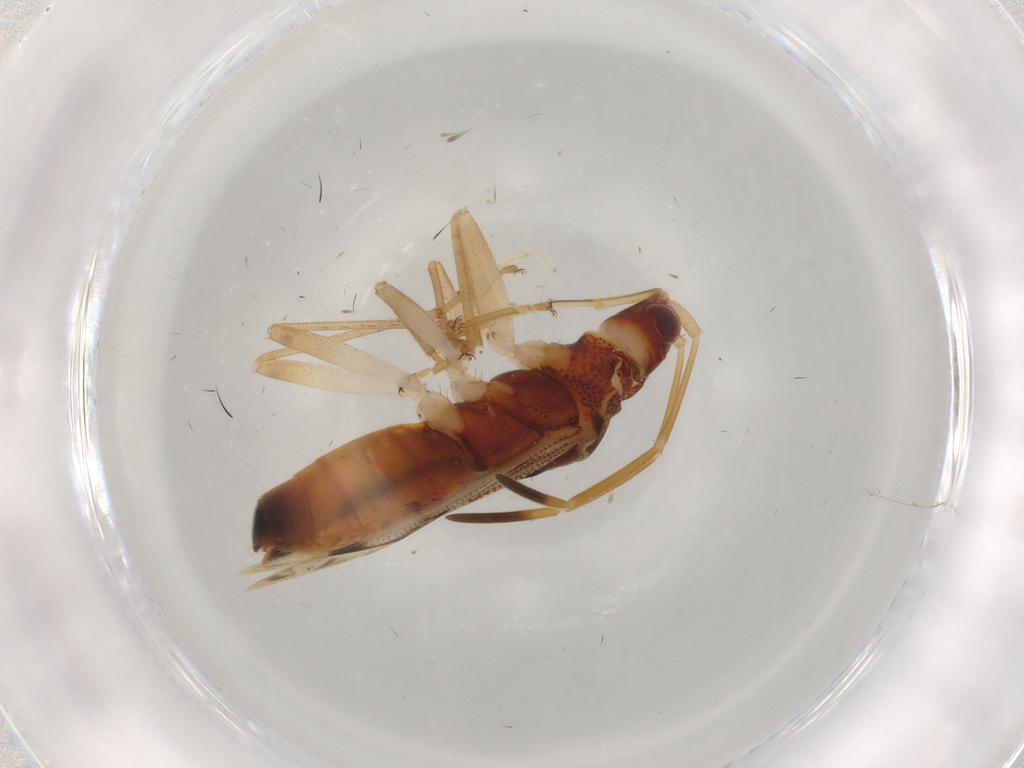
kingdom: Animalia
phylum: Arthropoda
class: Insecta
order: Hemiptera
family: Rhyparochromidae
